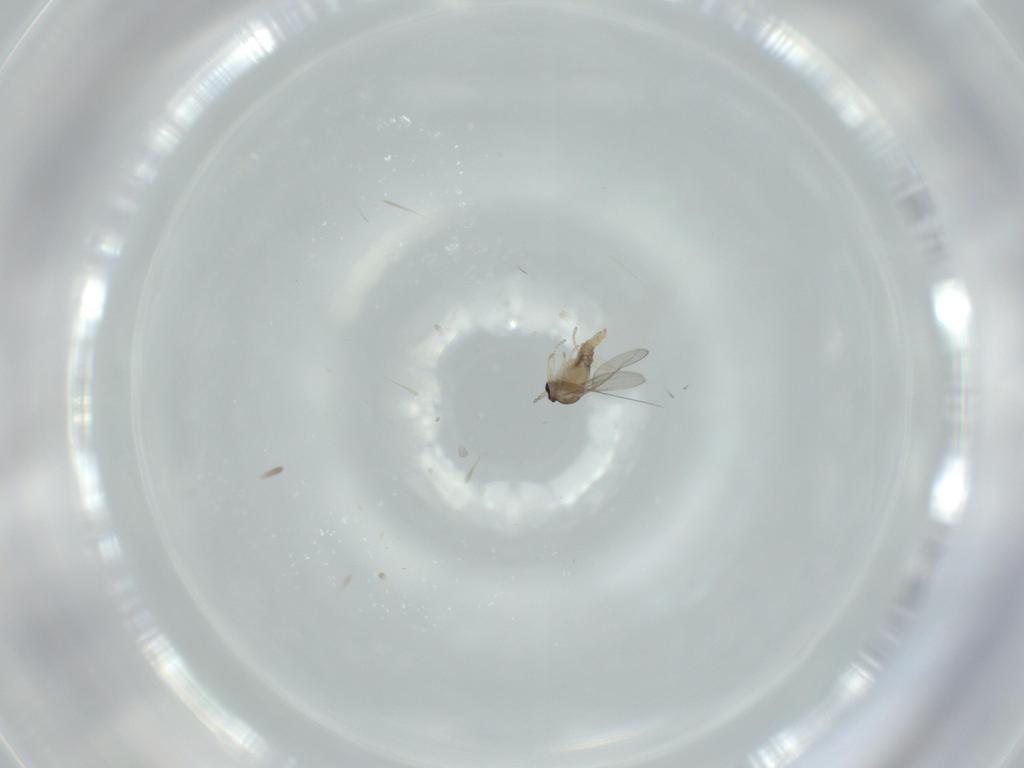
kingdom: Animalia
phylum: Arthropoda
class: Insecta
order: Diptera
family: Cecidomyiidae
